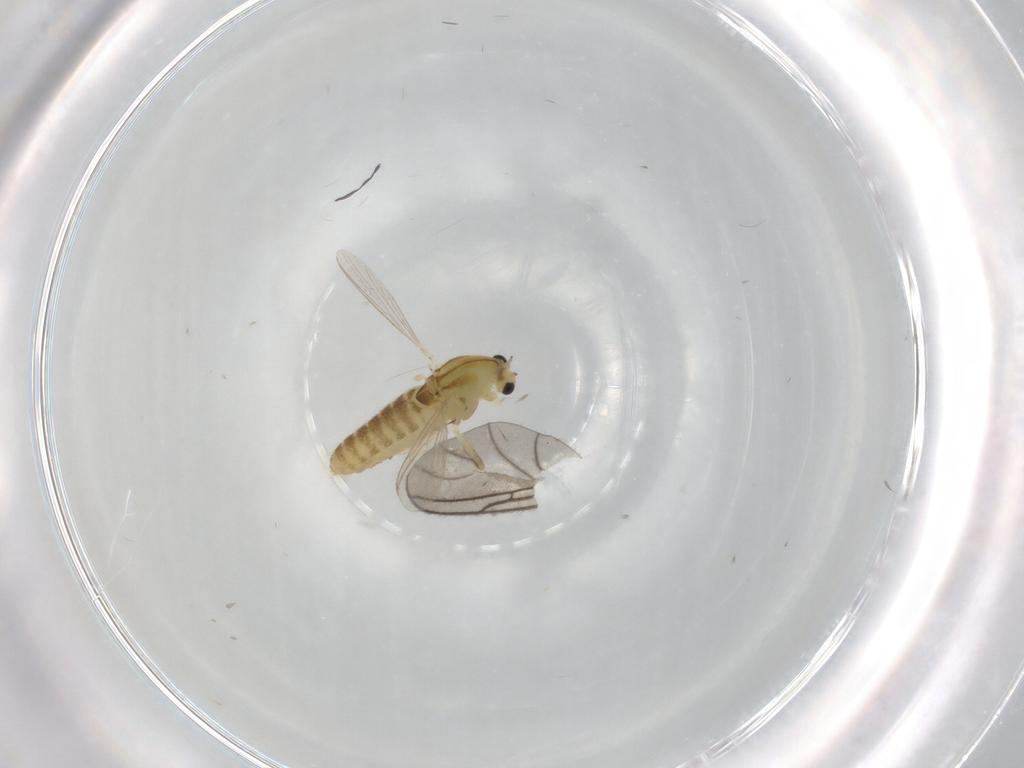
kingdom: Animalia
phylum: Arthropoda
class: Insecta
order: Diptera
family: Chironomidae
